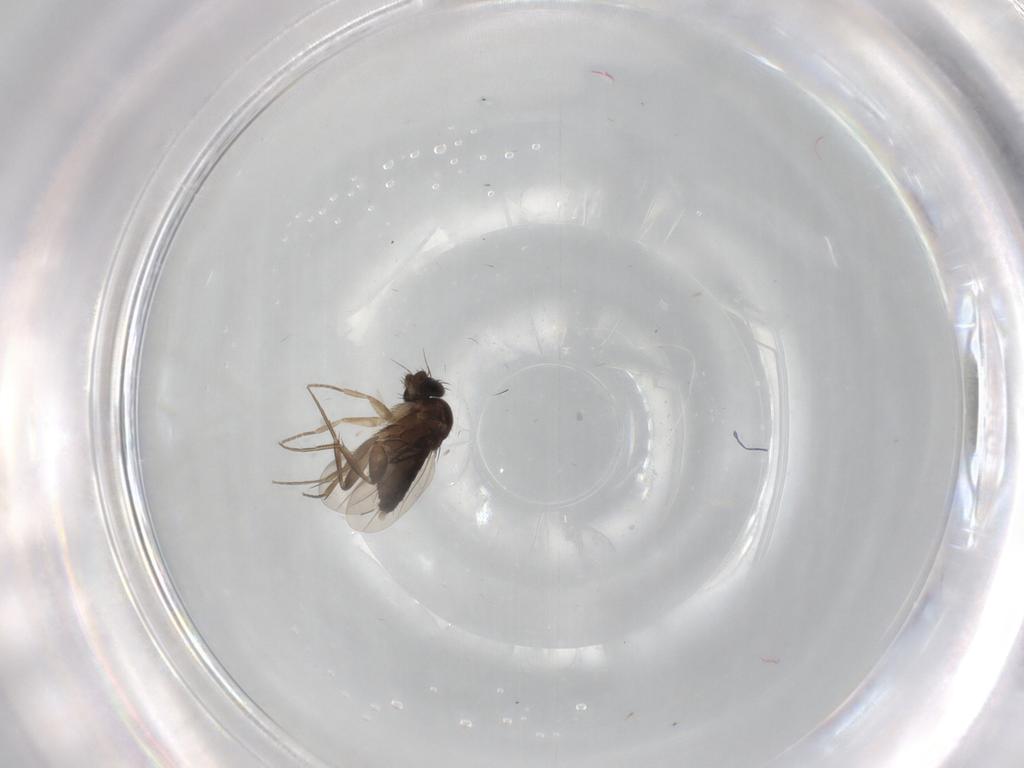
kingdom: Animalia
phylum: Arthropoda
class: Insecta
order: Diptera
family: Phoridae
